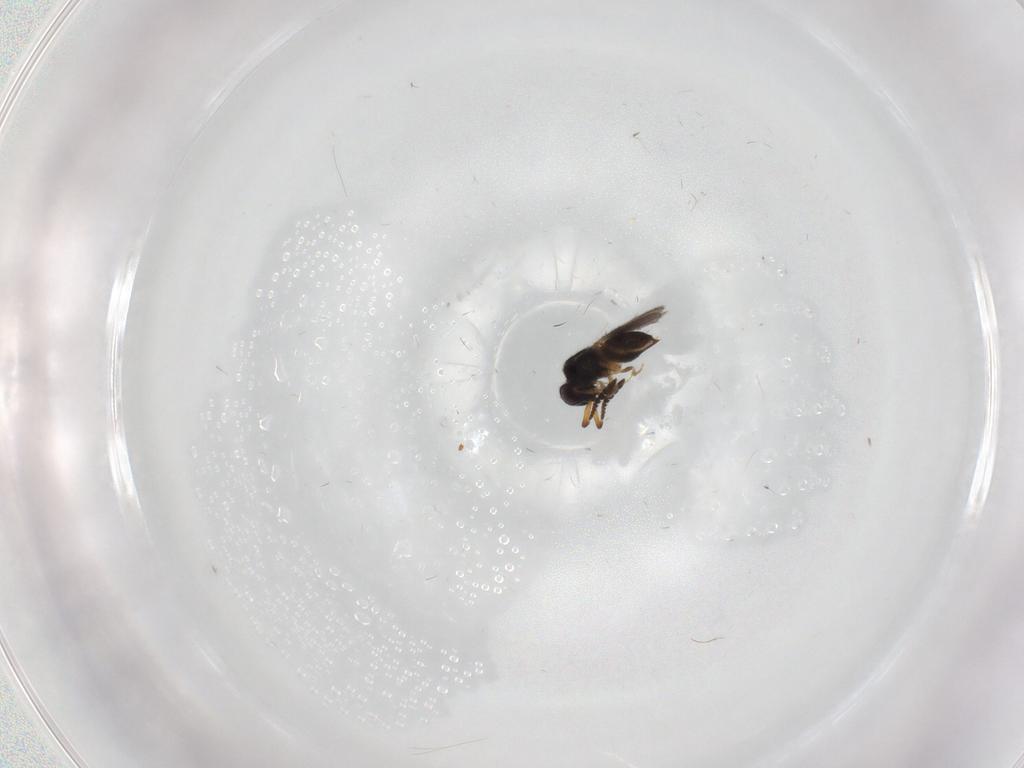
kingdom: Animalia
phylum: Arthropoda
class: Insecta
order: Hymenoptera
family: Ceraphronidae
